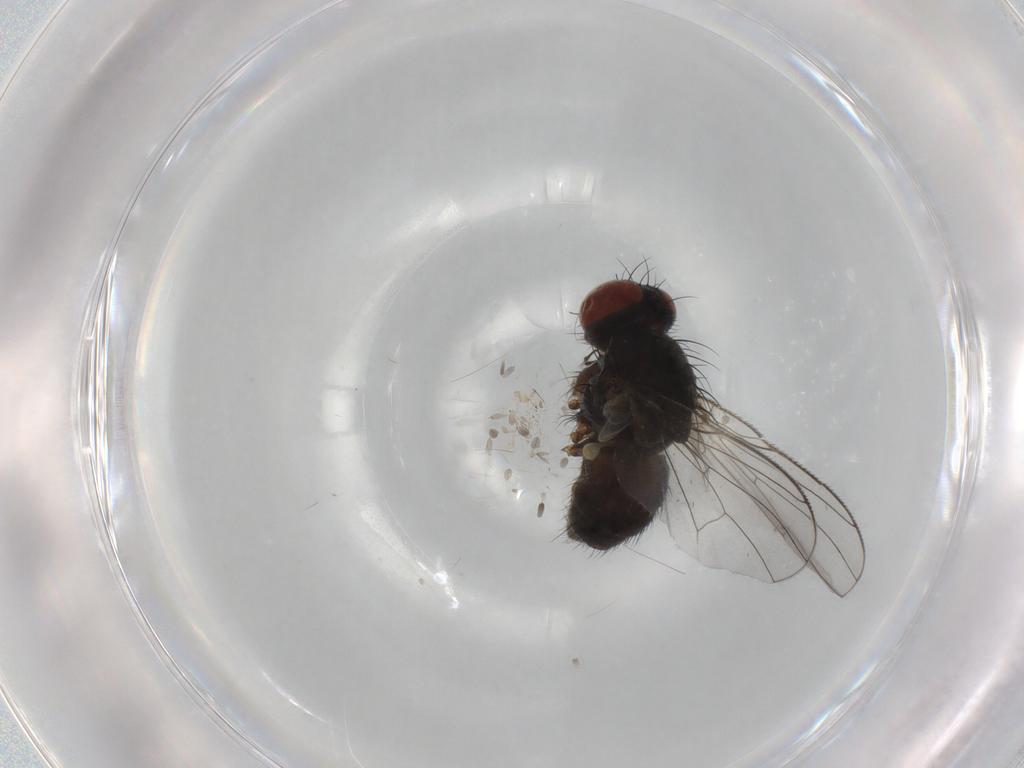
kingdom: Animalia
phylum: Arthropoda
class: Insecta
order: Diptera
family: Muscidae
